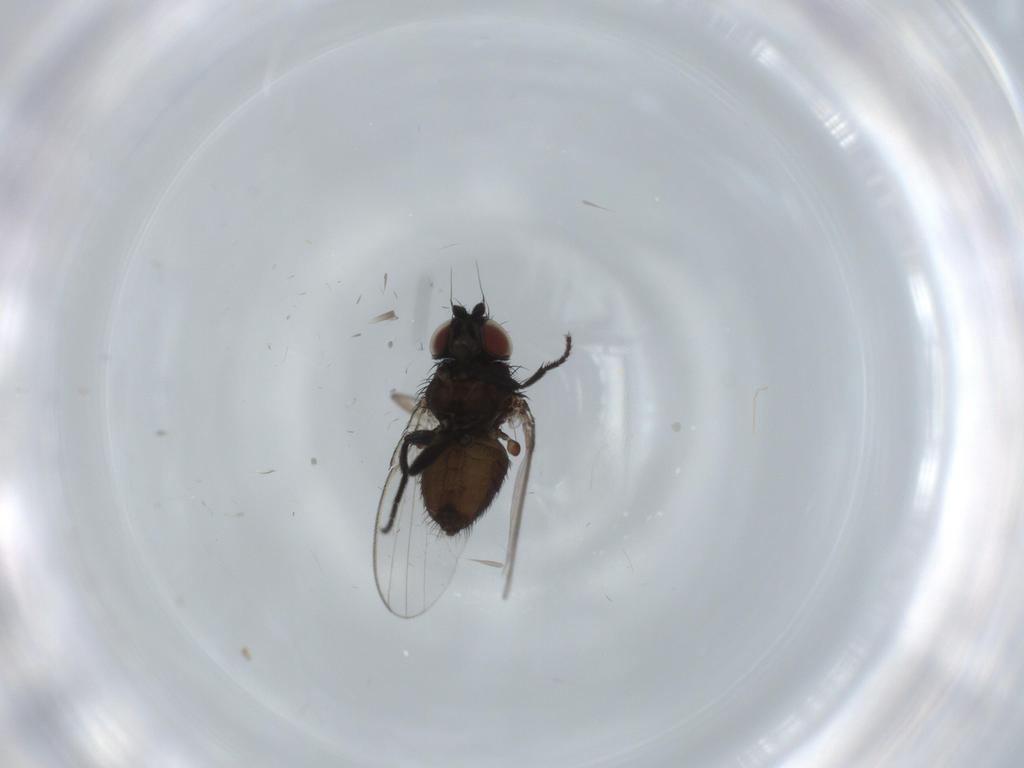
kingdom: Animalia
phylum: Arthropoda
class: Insecta
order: Diptera
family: Milichiidae
